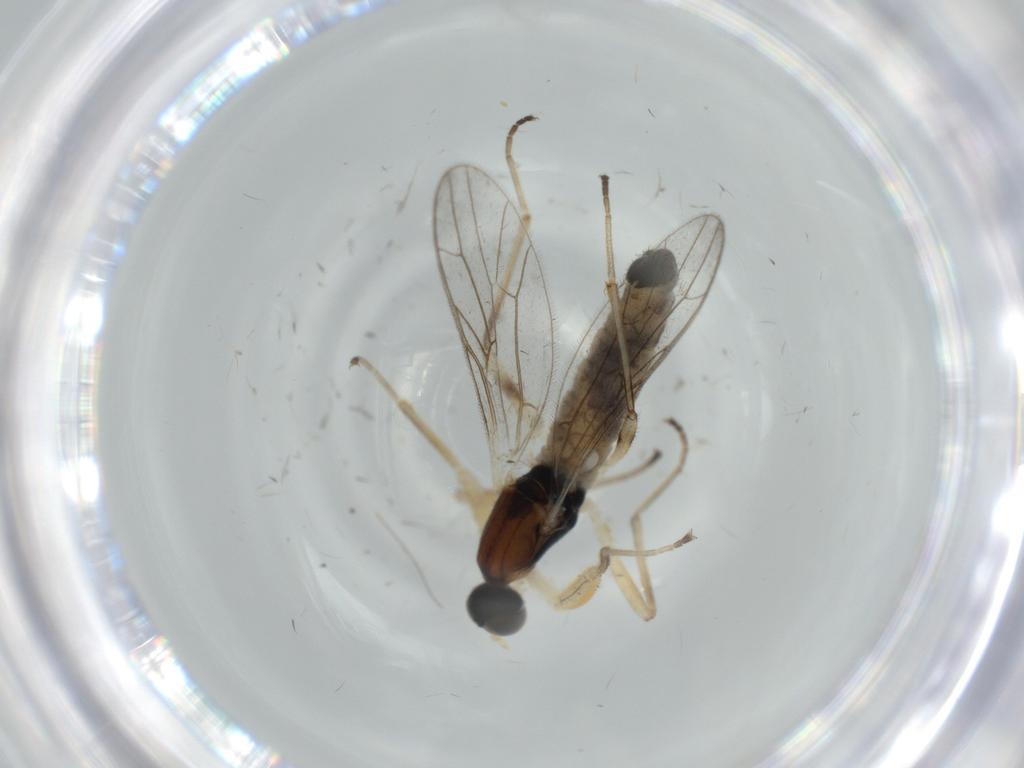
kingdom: Animalia
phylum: Arthropoda
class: Insecta
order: Diptera
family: Empididae
